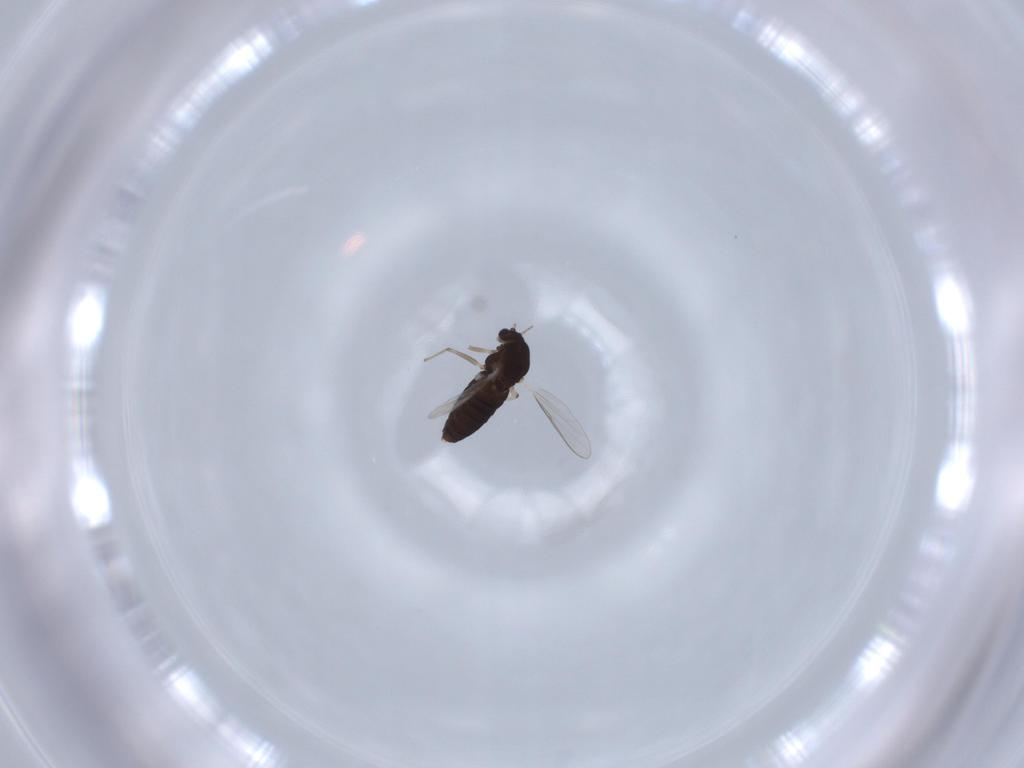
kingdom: Animalia
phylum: Arthropoda
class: Insecta
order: Diptera
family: Chironomidae
